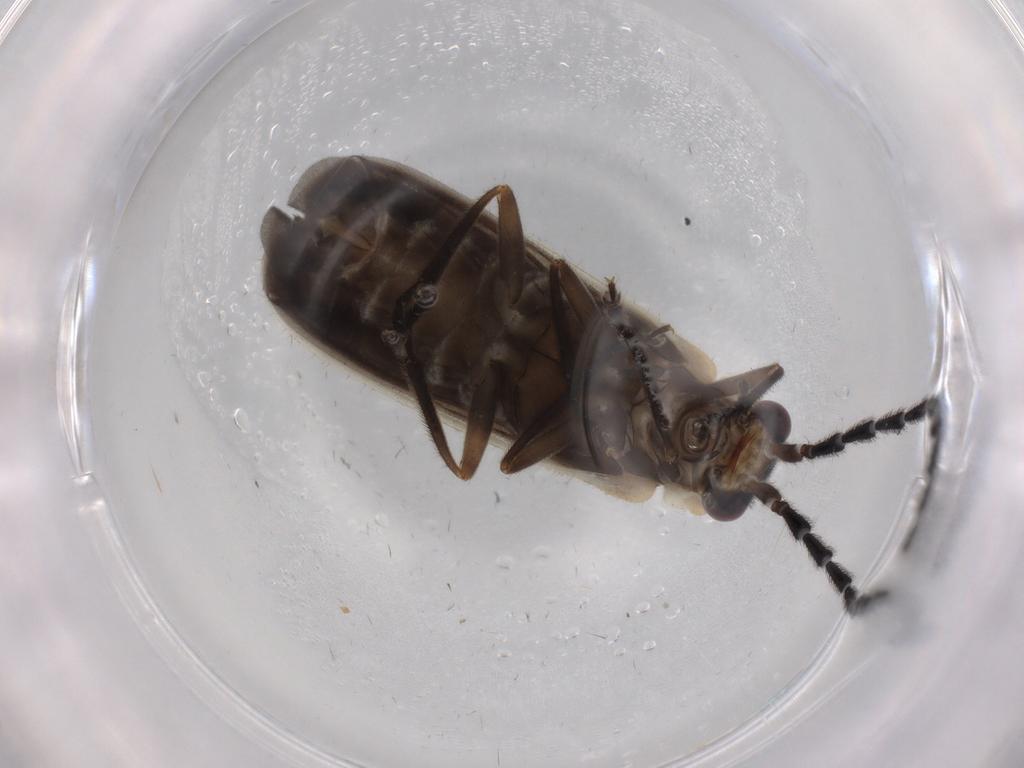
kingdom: Animalia
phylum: Arthropoda
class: Insecta
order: Coleoptera
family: Cantharidae
